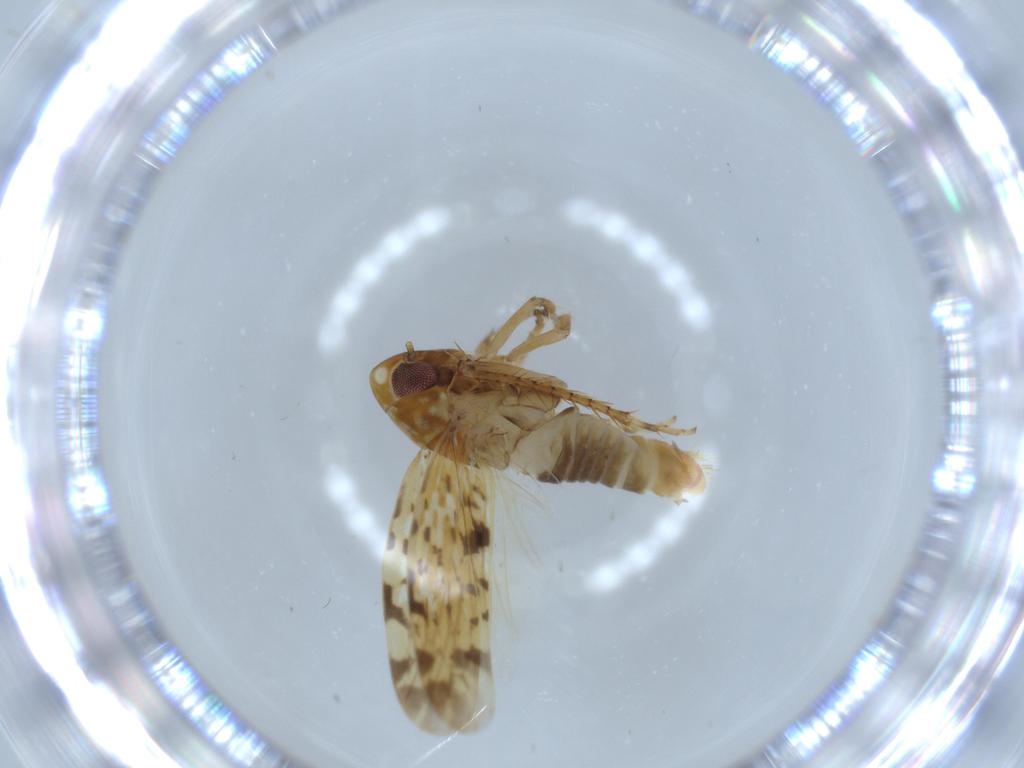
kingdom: Animalia
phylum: Arthropoda
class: Insecta
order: Hemiptera
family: Cicadellidae
